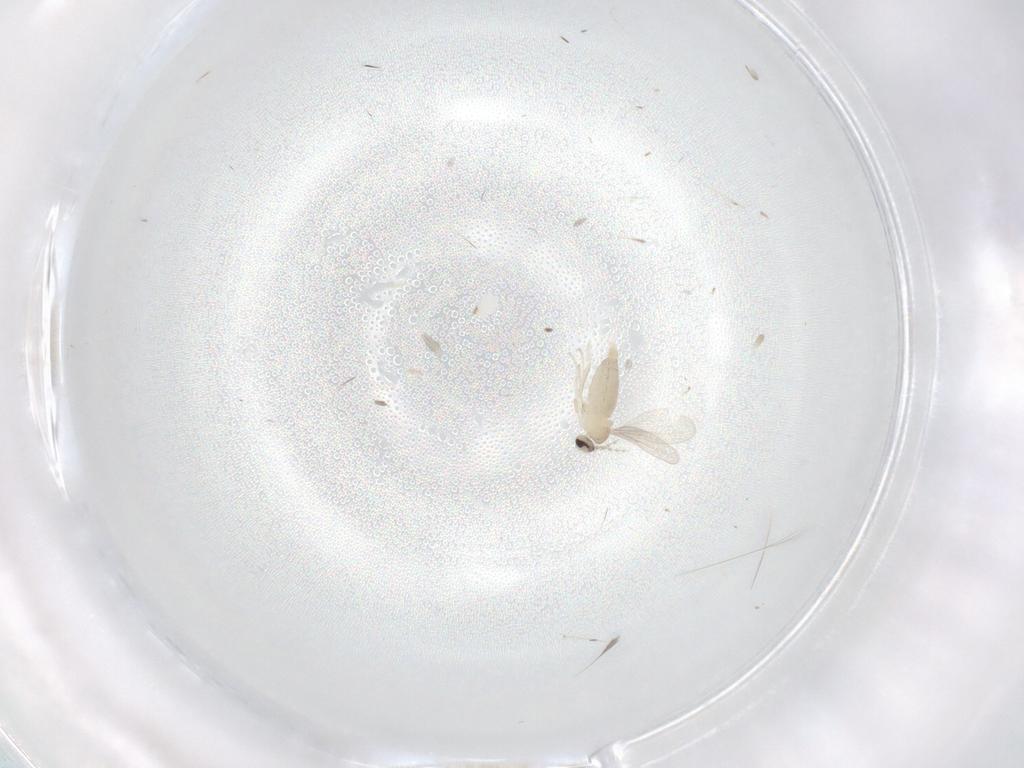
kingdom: Animalia
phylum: Arthropoda
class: Insecta
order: Diptera
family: Cecidomyiidae
